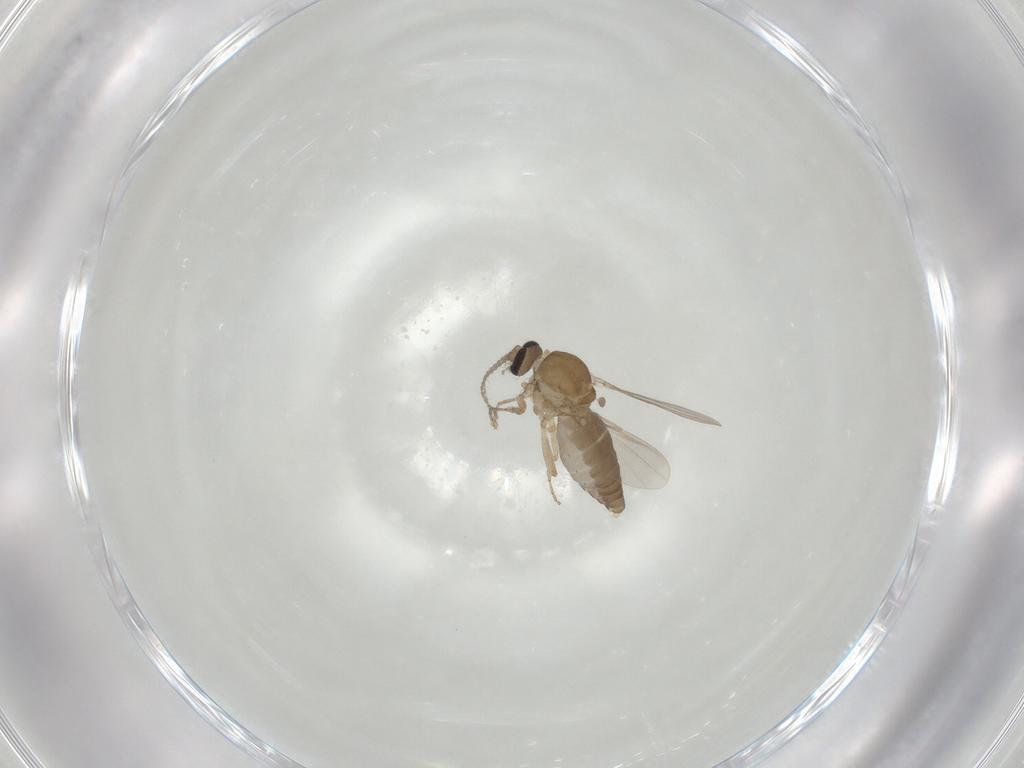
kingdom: Animalia
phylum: Arthropoda
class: Insecta
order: Diptera
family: Ceratopogonidae
